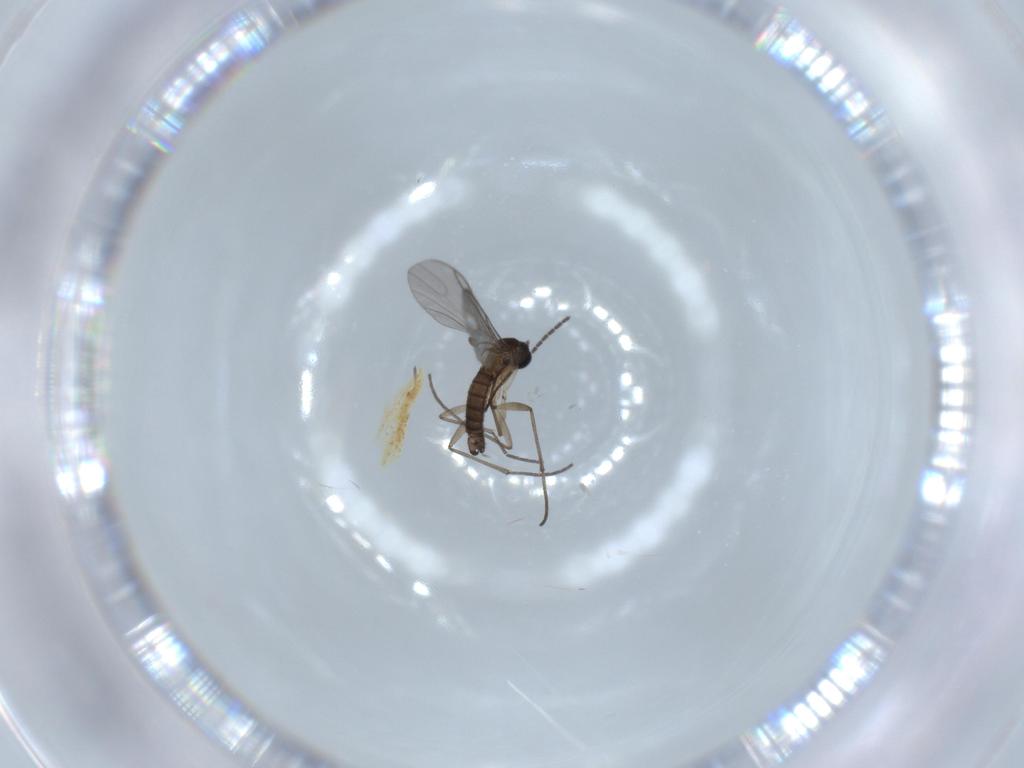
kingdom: Animalia
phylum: Arthropoda
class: Insecta
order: Diptera
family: Sciaridae
